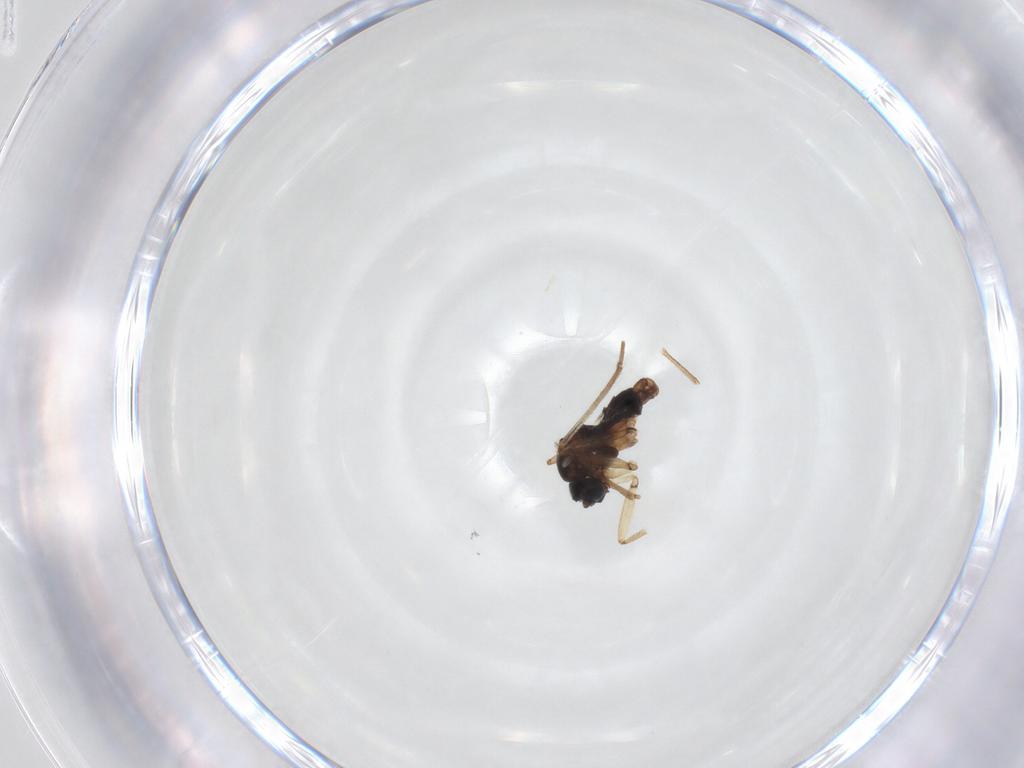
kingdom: Animalia
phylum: Arthropoda
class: Insecta
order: Diptera
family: Sciaridae
